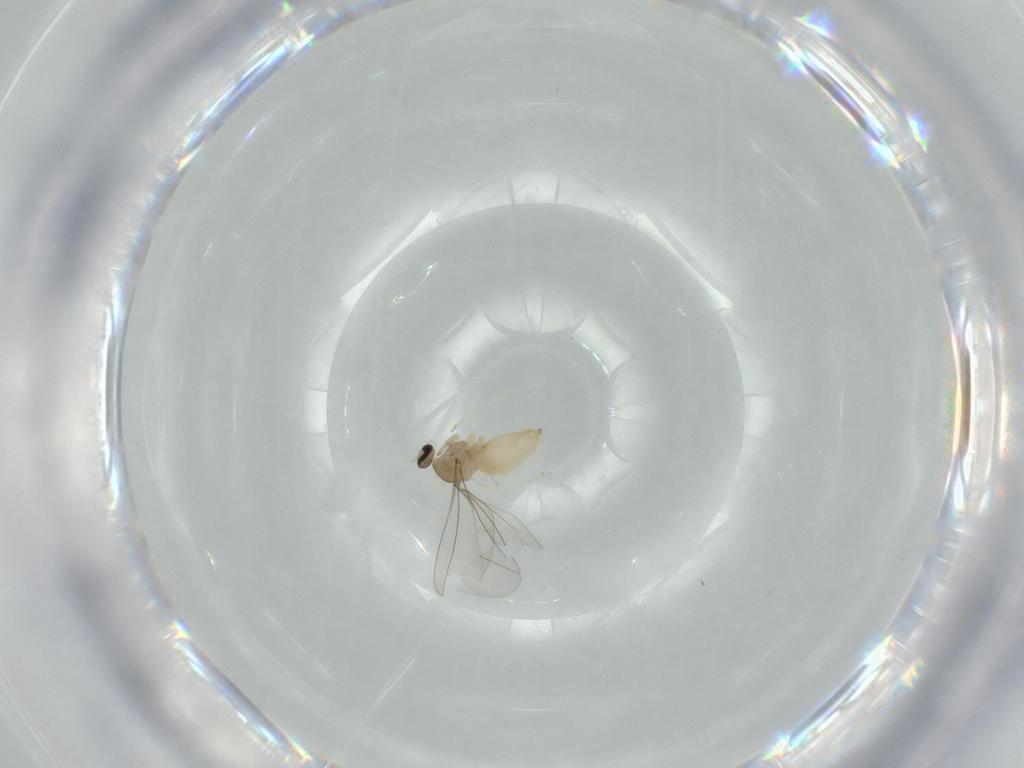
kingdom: Animalia
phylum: Arthropoda
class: Insecta
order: Diptera
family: Cecidomyiidae
